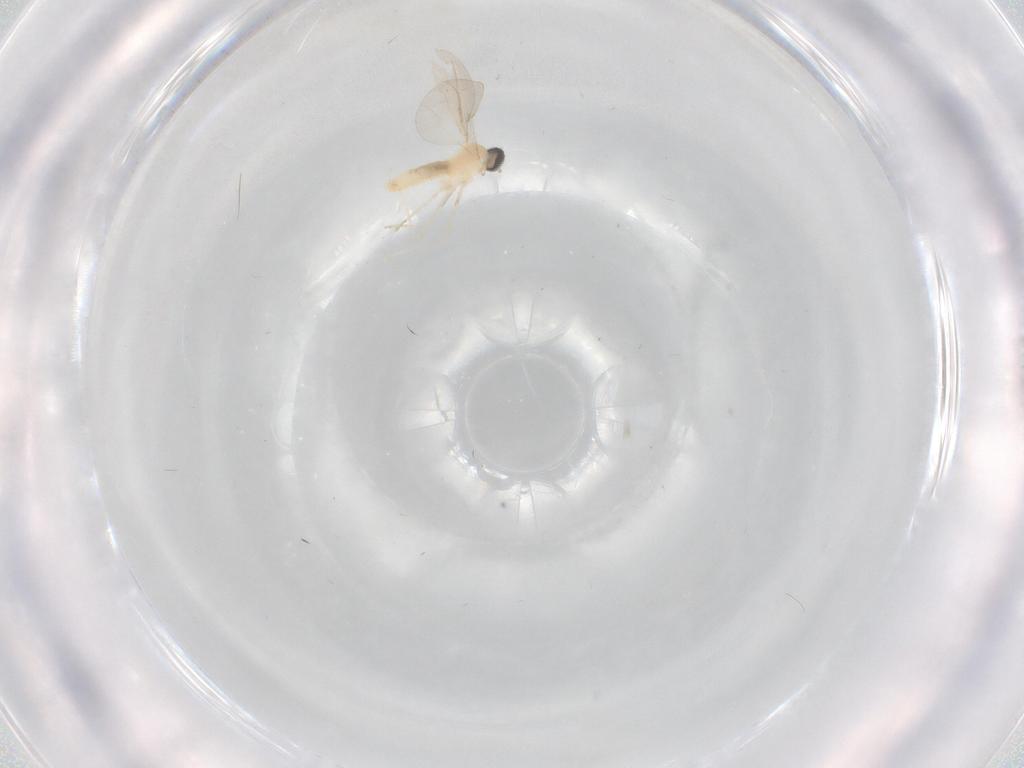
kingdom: Animalia
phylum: Arthropoda
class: Insecta
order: Diptera
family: Cecidomyiidae
